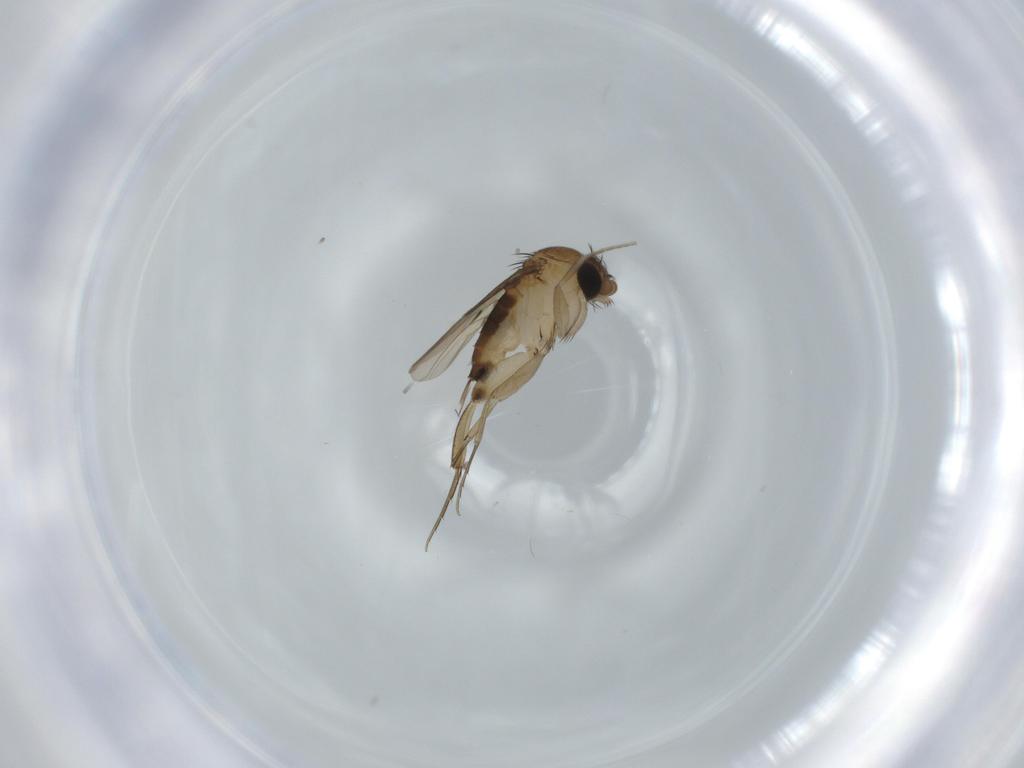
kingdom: Animalia
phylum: Arthropoda
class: Insecta
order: Diptera
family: Phoridae
